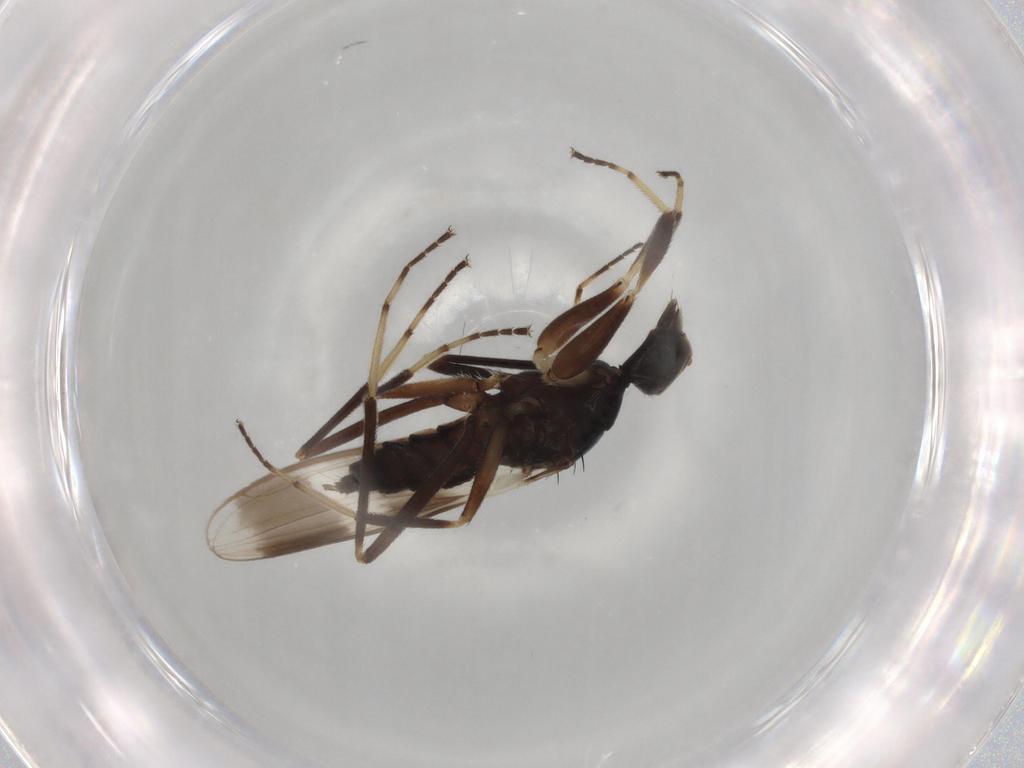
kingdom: Animalia
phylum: Arthropoda
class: Insecta
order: Diptera
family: Hybotidae
